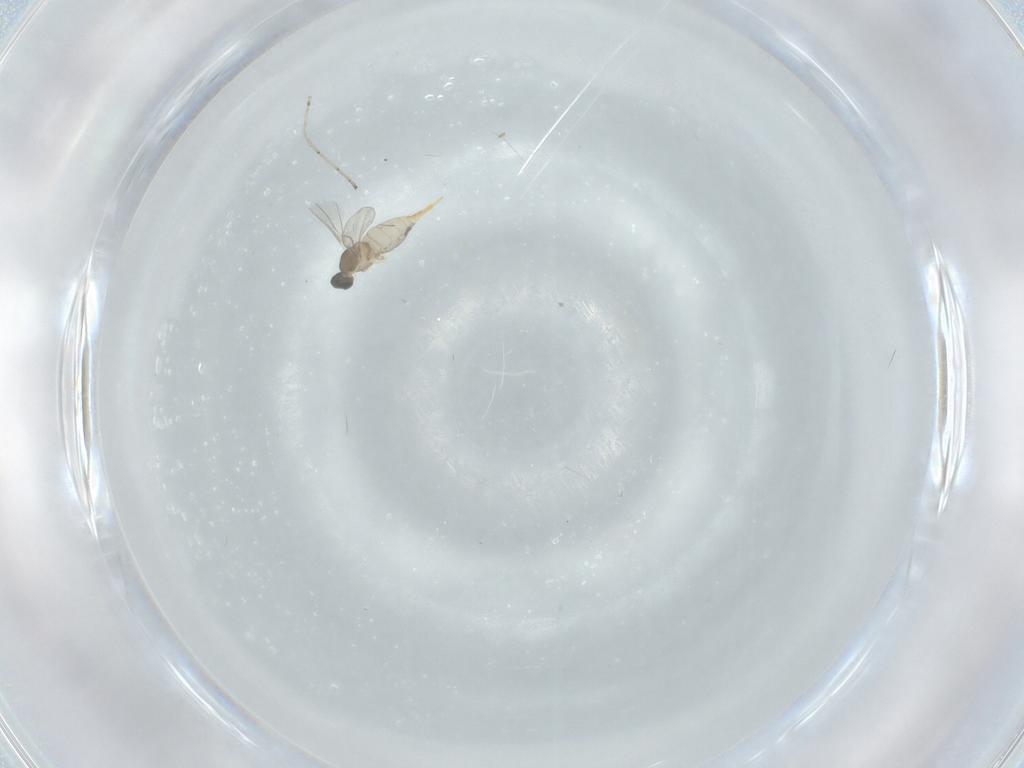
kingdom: Animalia
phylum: Arthropoda
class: Insecta
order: Diptera
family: Cecidomyiidae
